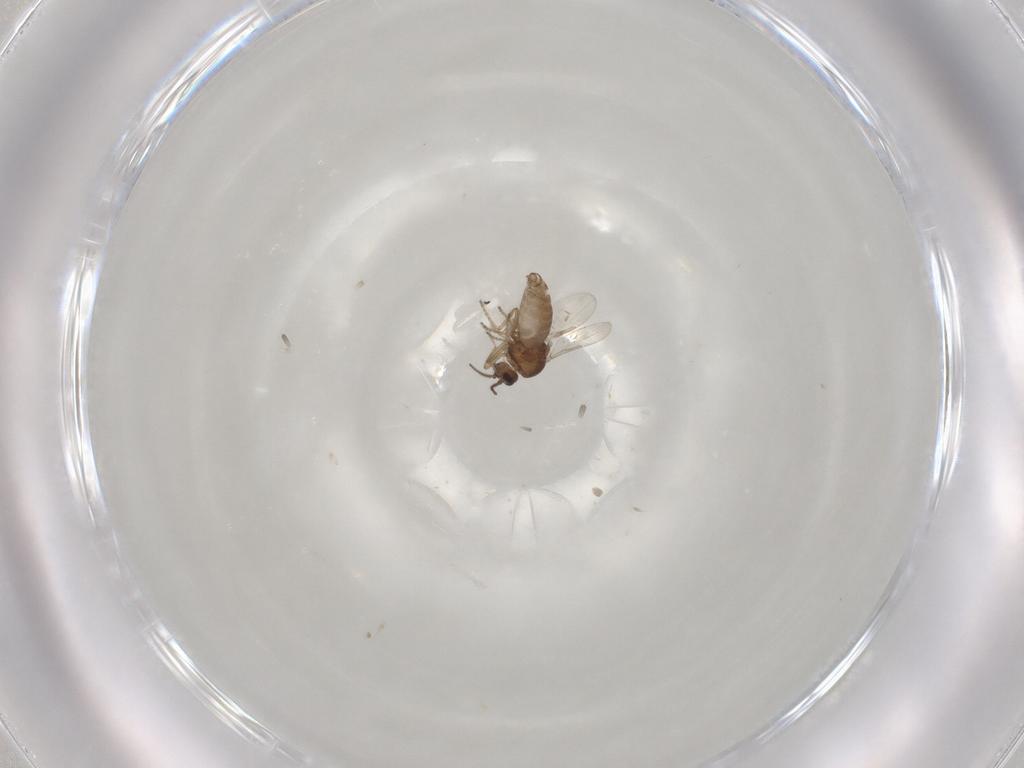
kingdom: Animalia
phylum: Arthropoda
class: Insecta
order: Diptera
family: Ceratopogonidae
